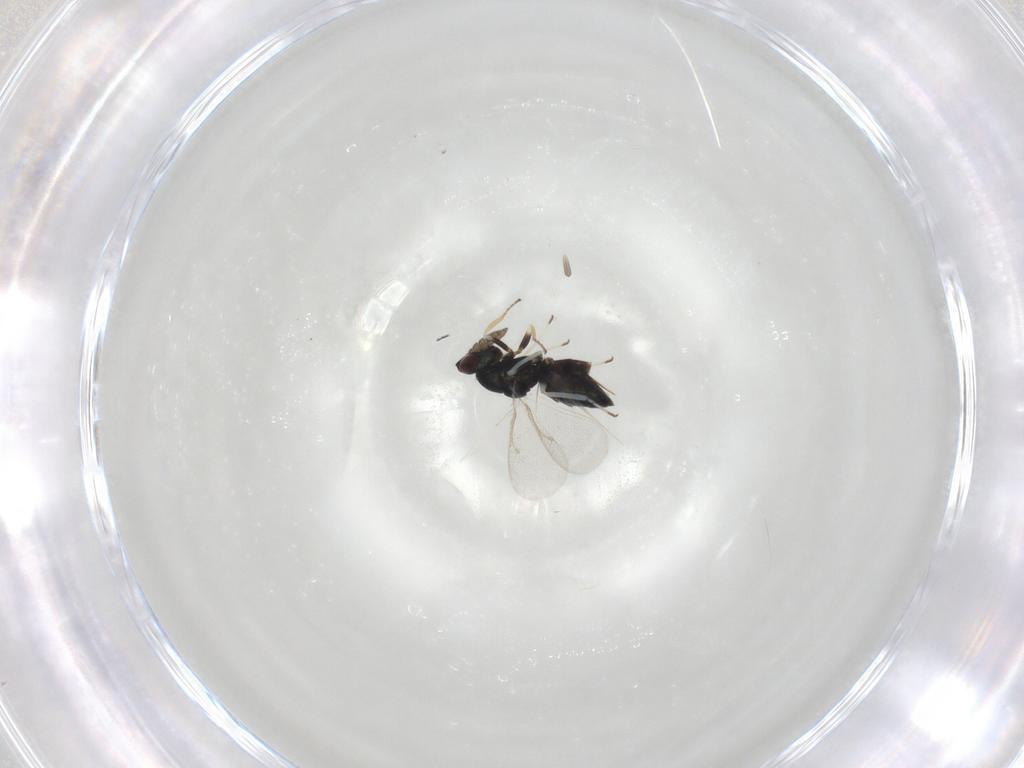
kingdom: Animalia
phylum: Arthropoda
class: Insecta
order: Hymenoptera
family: Eulophidae
